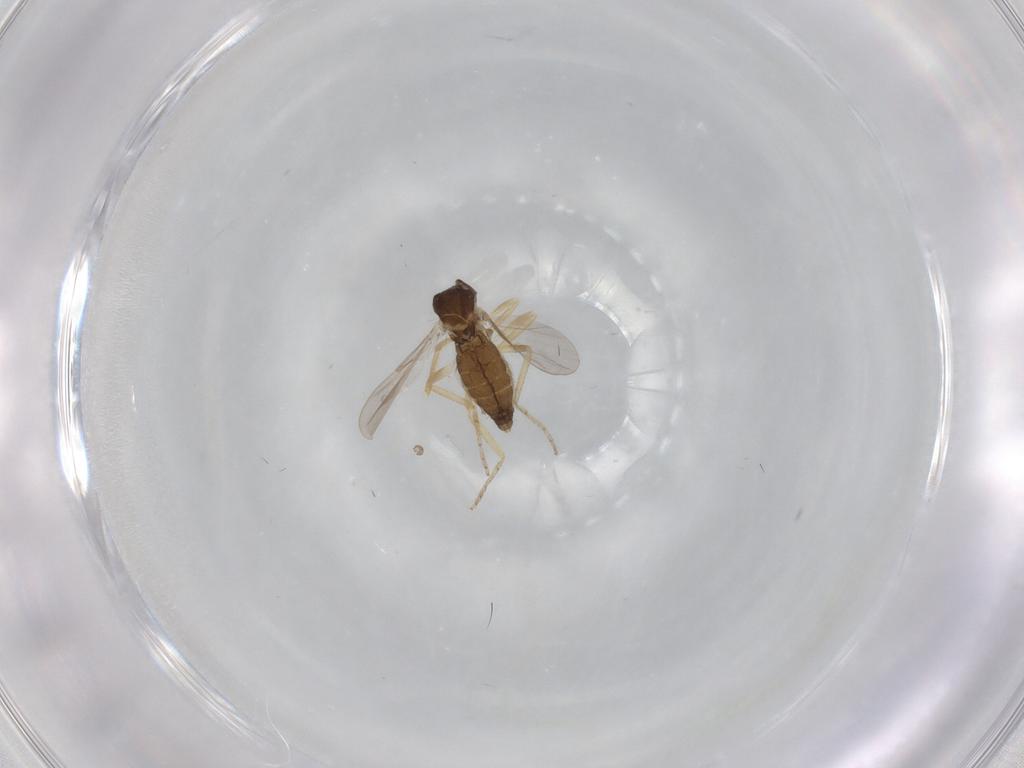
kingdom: Animalia
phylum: Arthropoda
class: Insecta
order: Diptera
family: Ceratopogonidae
